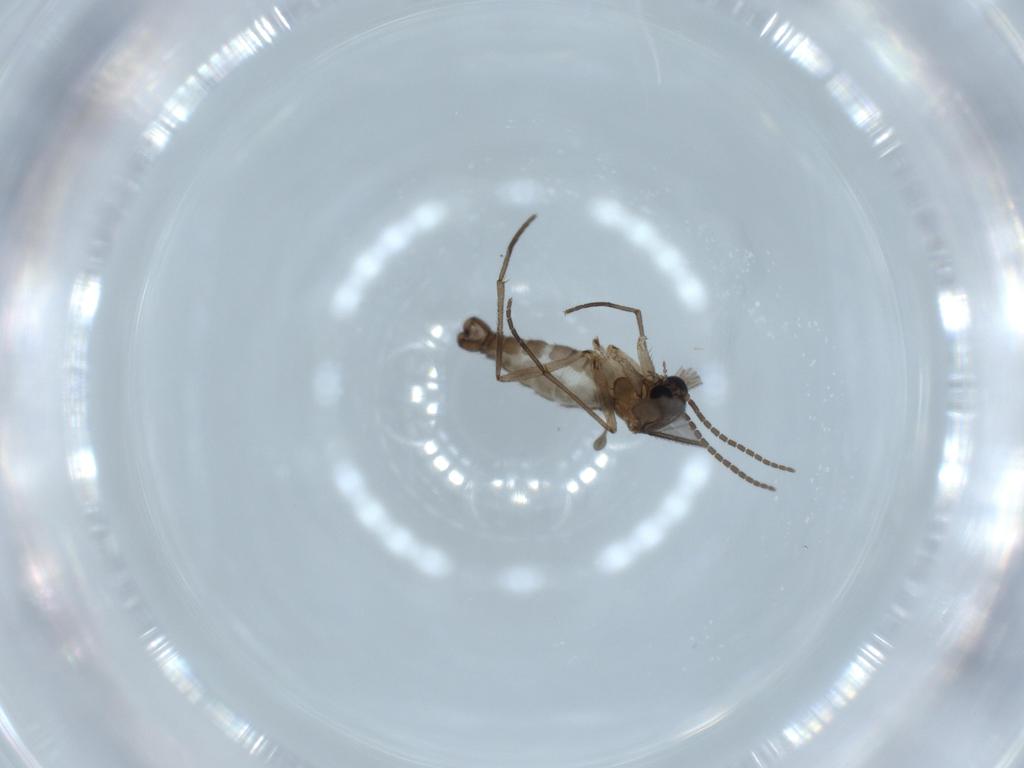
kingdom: Animalia
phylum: Arthropoda
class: Insecta
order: Diptera
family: Sciaridae
